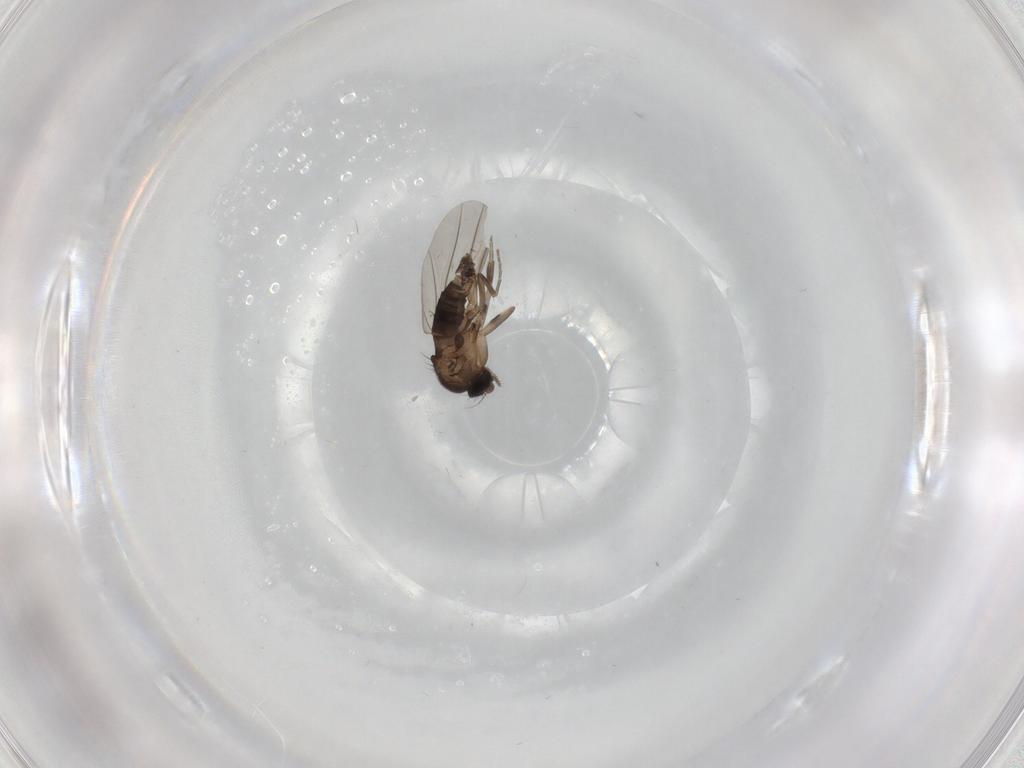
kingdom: Animalia
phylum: Arthropoda
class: Insecta
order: Diptera
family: Phoridae
